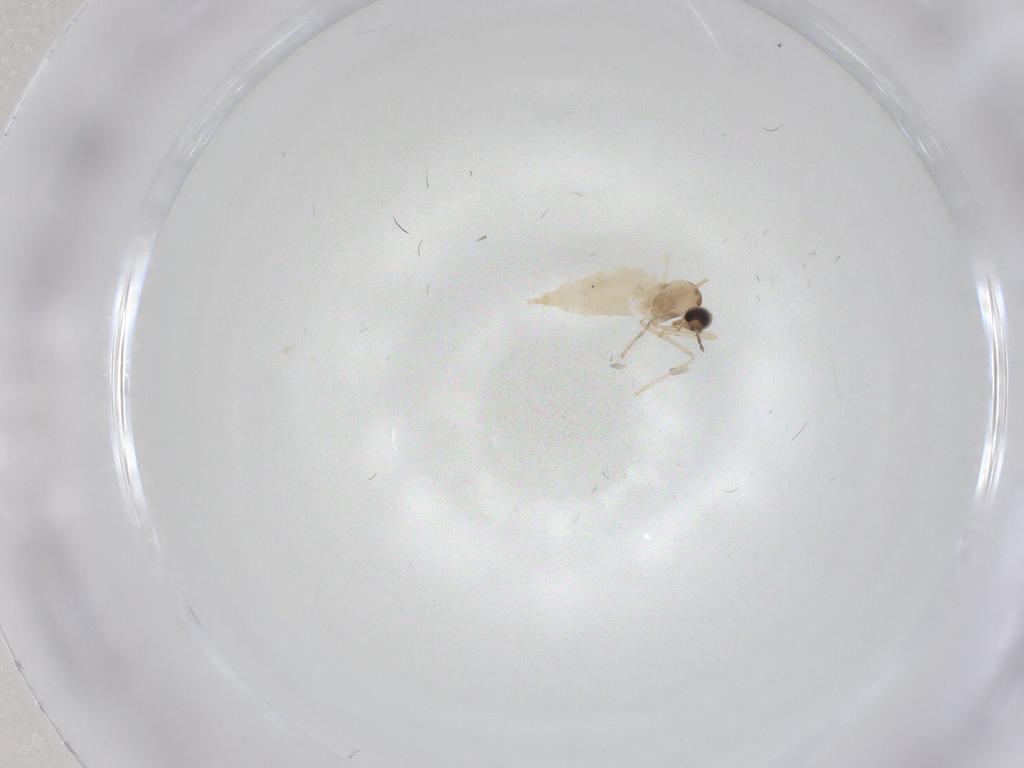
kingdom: Animalia
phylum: Arthropoda
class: Insecta
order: Diptera
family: Cecidomyiidae
